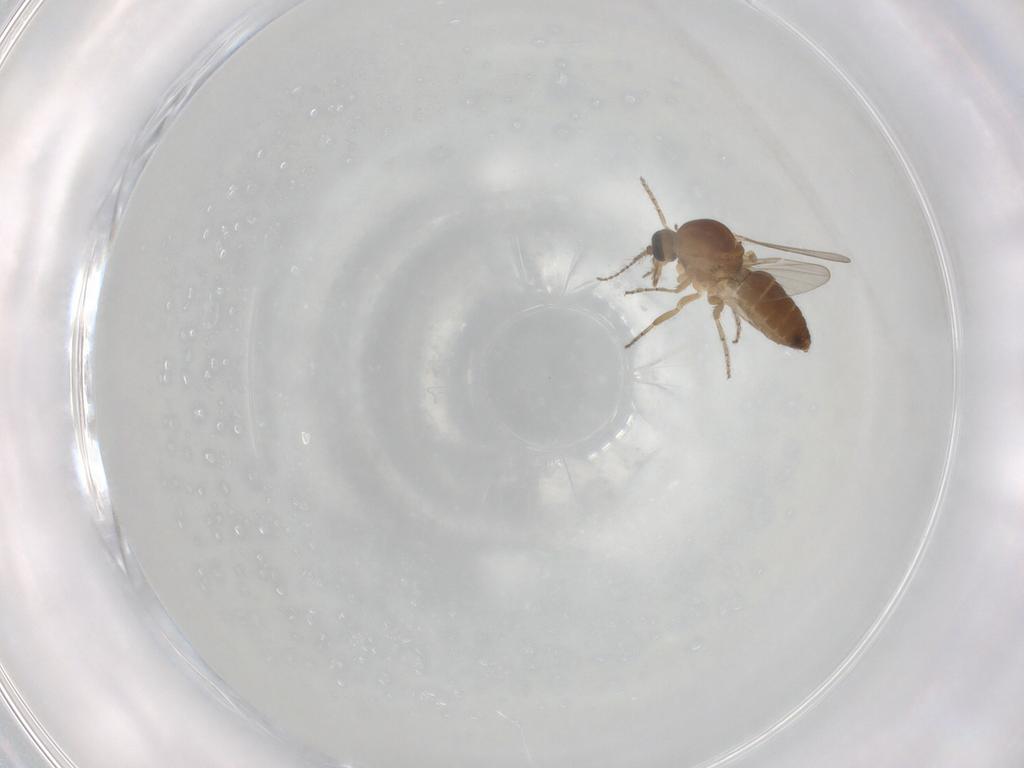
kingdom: Animalia
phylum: Arthropoda
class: Insecta
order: Diptera
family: Ceratopogonidae
